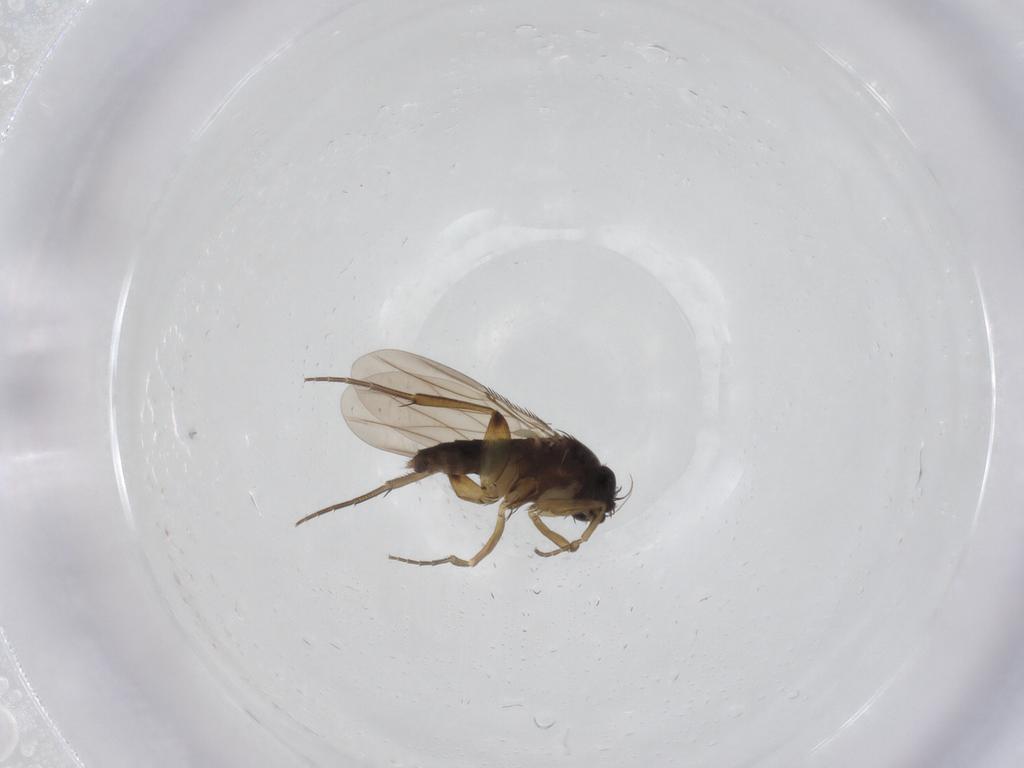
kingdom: Animalia
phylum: Arthropoda
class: Insecta
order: Diptera
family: Phoridae
